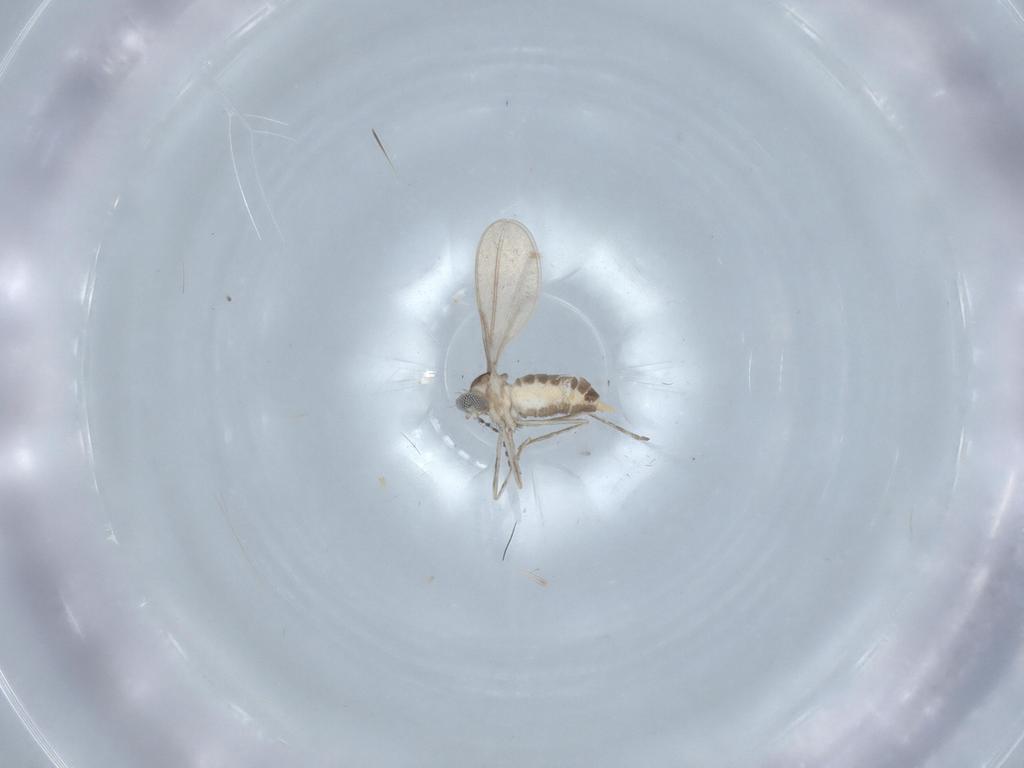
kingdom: Animalia
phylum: Arthropoda
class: Insecta
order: Diptera
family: Cecidomyiidae
